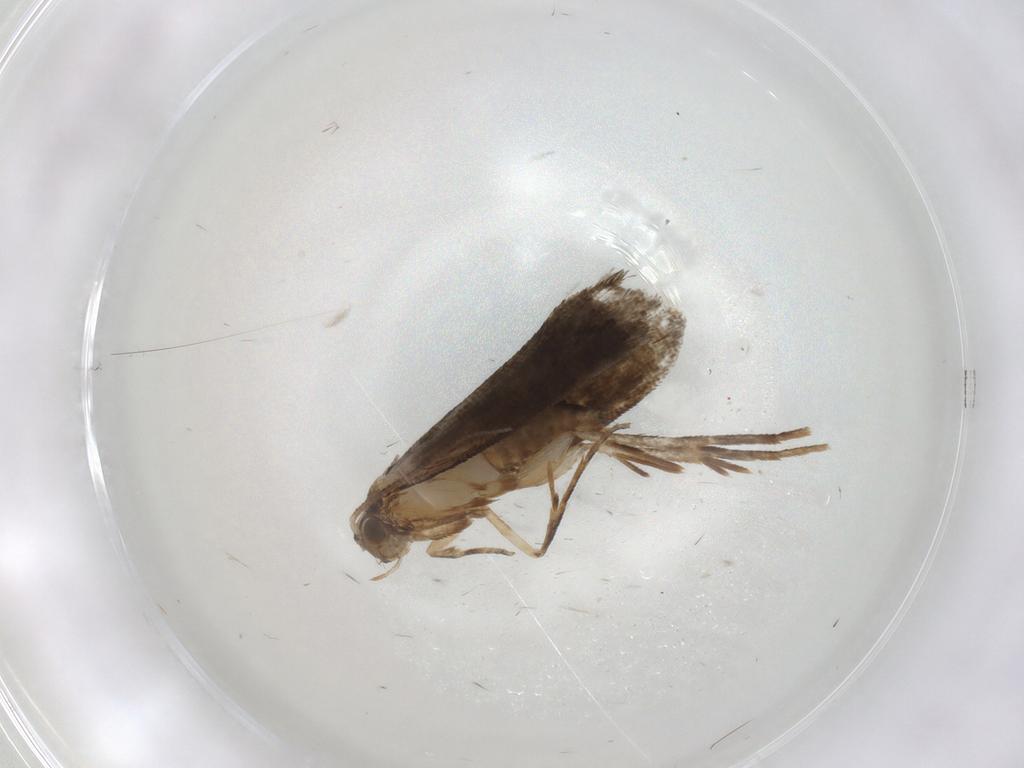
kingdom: Animalia
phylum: Arthropoda
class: Insecta
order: Lepidoptera
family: Tineidae
